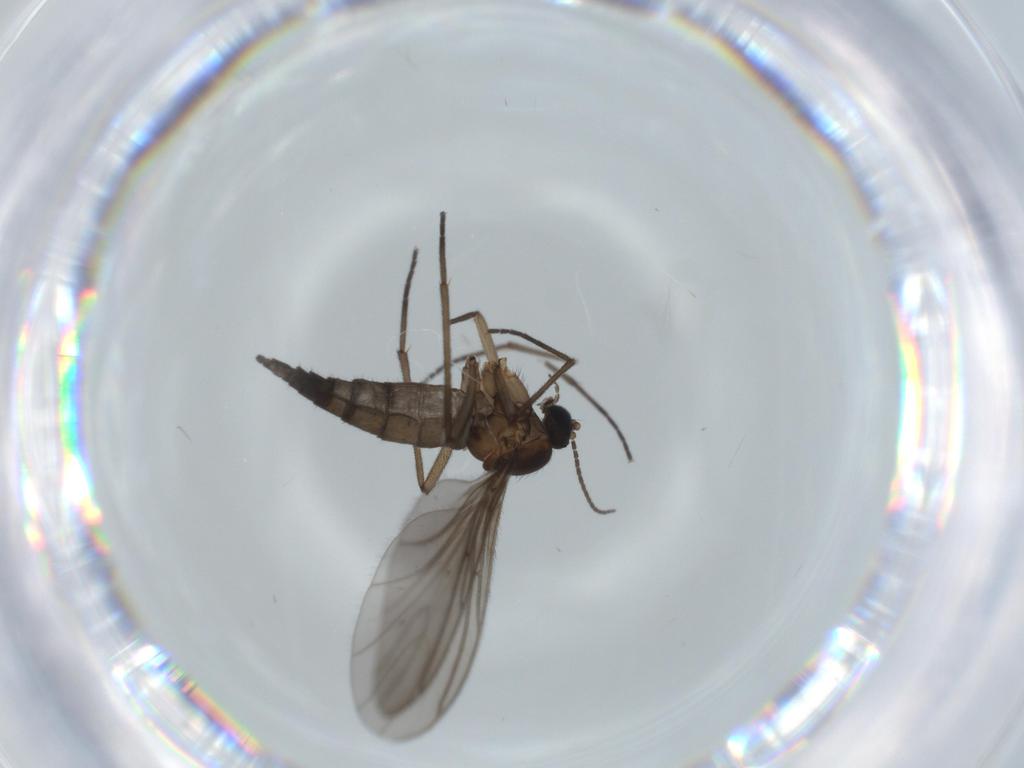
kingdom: Animalia
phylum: Arthropoda
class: Insecta
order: Diptera
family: Sciaridae
